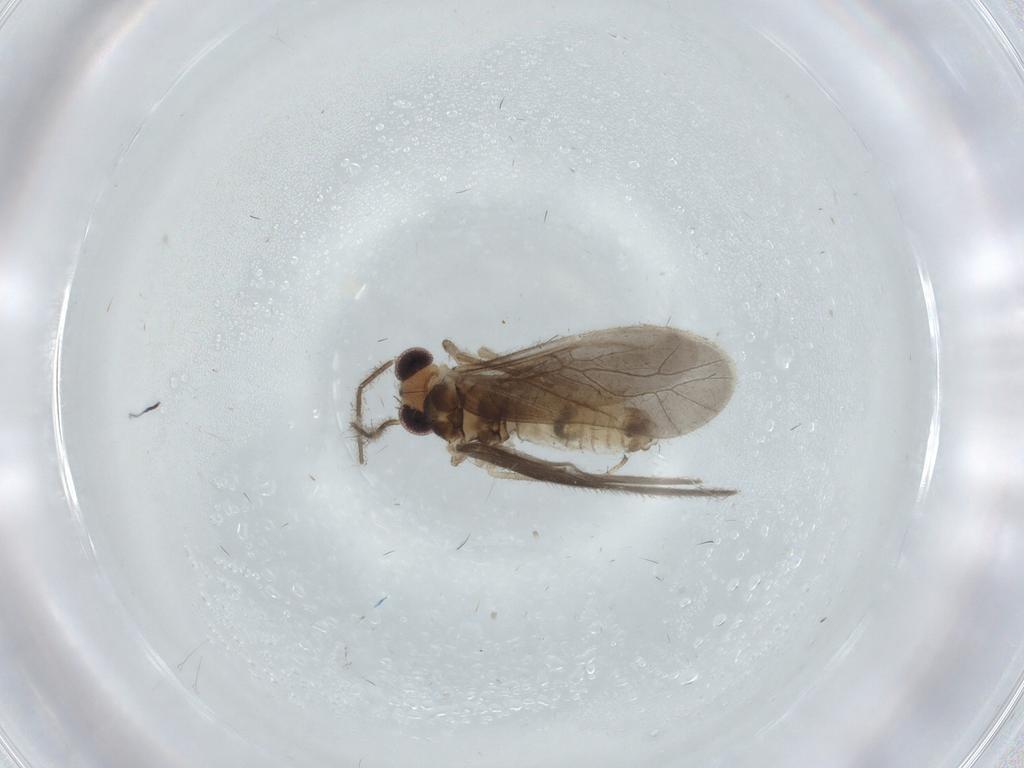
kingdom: Animalia
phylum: Arthropoda
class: Insecta
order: Psocodea
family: Caeciliusidae
